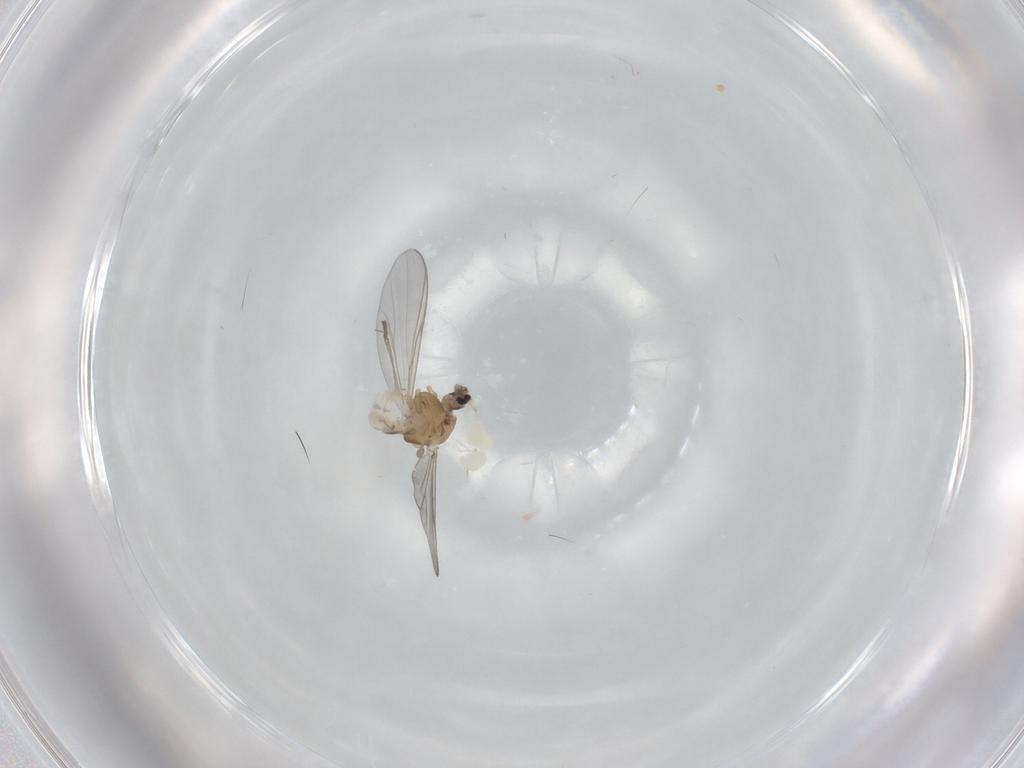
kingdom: Animalia
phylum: Arthropoda
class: Insecta
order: Diptera
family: Chironomidae
